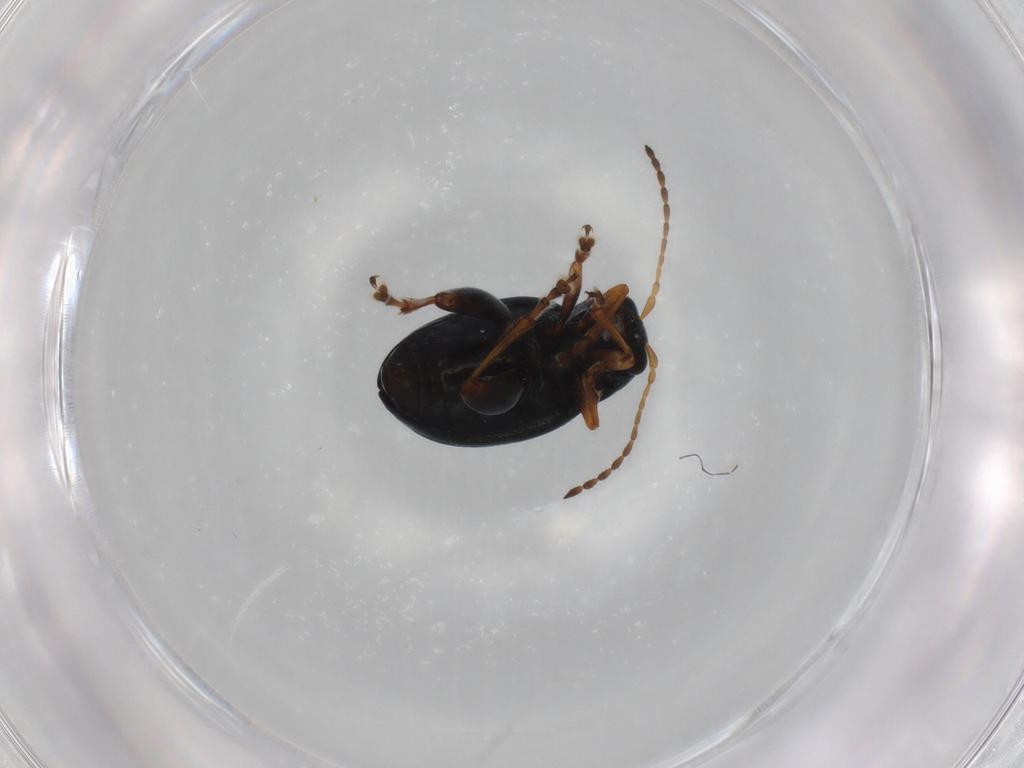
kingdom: Animalia
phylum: Arthropoda
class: Insecta
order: Coleoptera
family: Chrysomelidae
